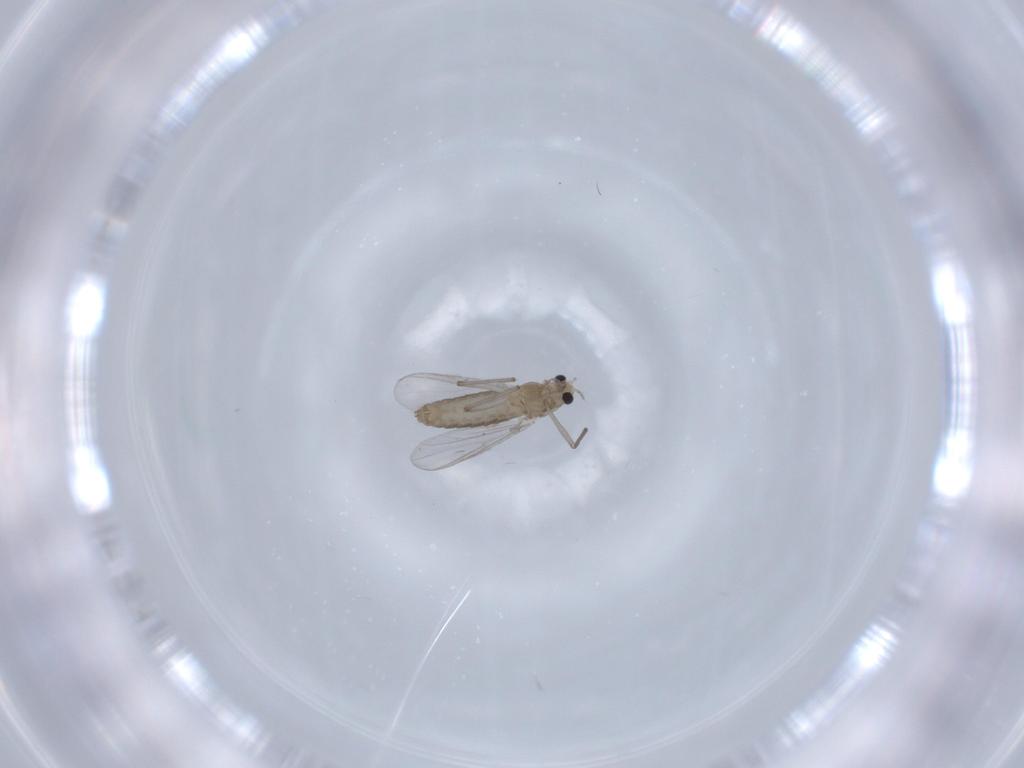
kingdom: Animalia
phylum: Arthropoda
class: Insecta
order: Diptera
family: Chironomidae
